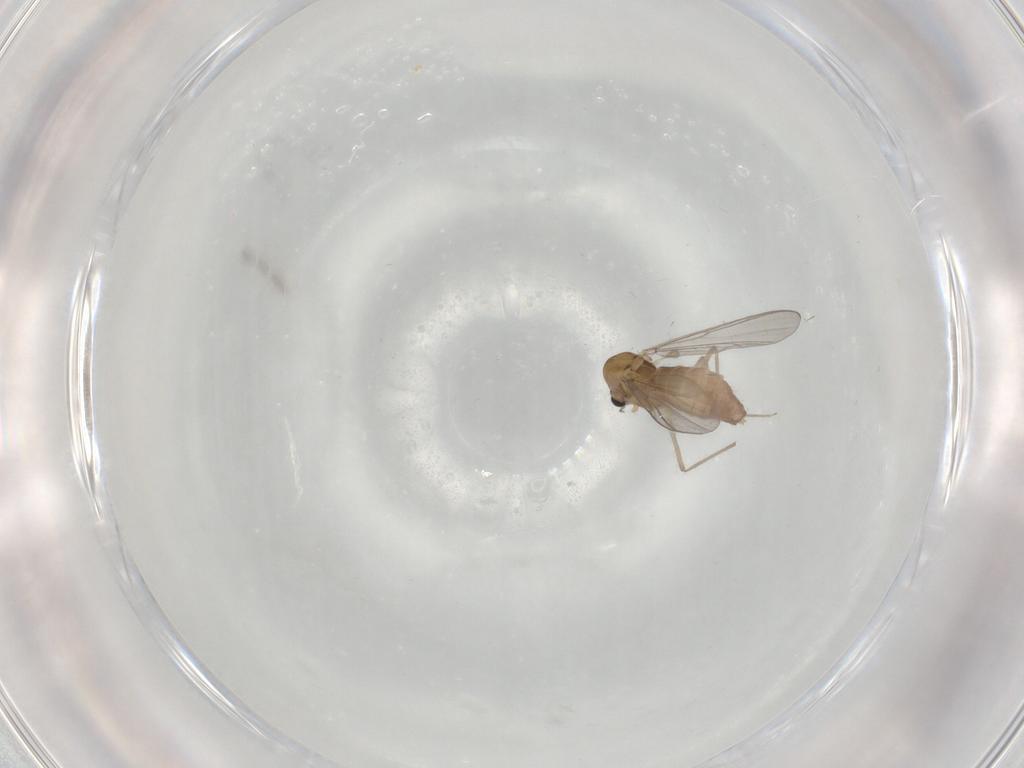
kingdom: Animalia
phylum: Arthropoda
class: Insecta
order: Diptera
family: Chironomidae
